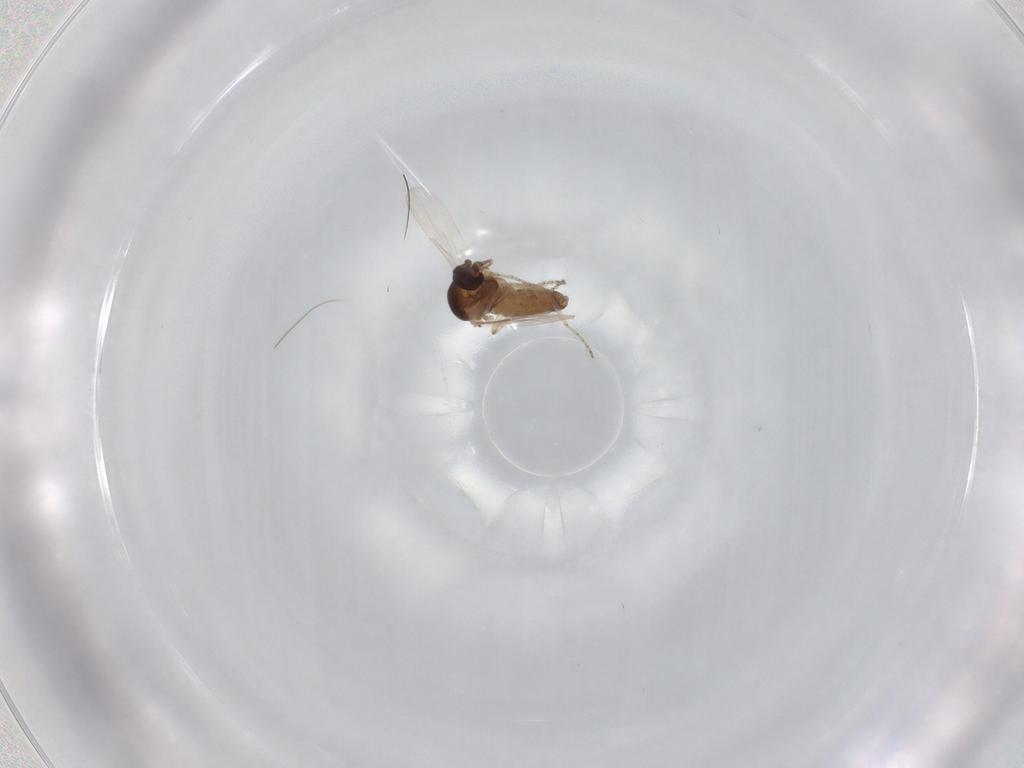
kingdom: Animalia
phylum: Arthropoda
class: Insecta
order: Diptera
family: Ceratopogonidae
